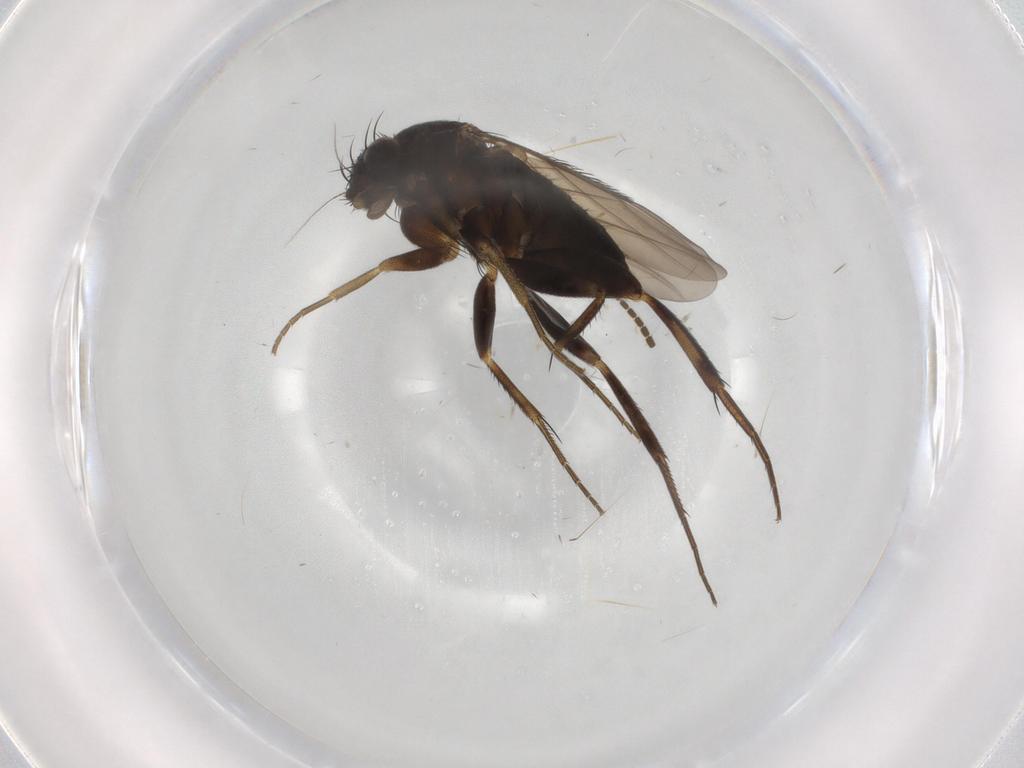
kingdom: Animalia
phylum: Arthropoda
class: Insecta
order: Diptera
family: Phoridae
